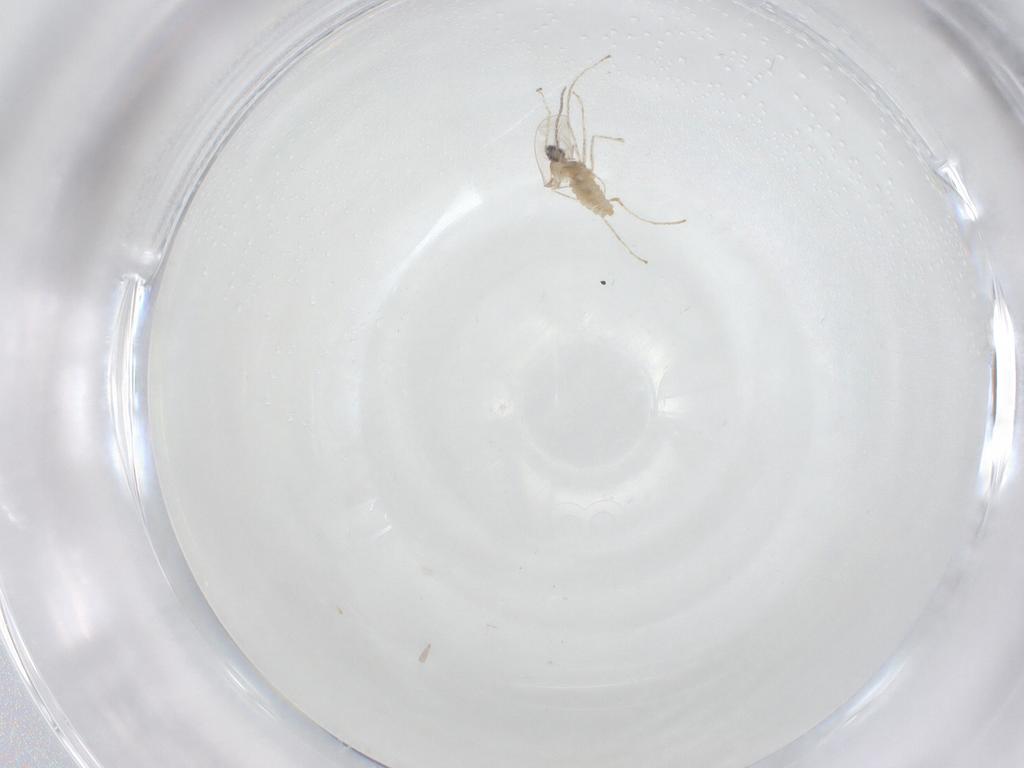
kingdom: Animalia
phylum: Arthropoda
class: Insecta
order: Diptera
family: Cecidomyiidae
